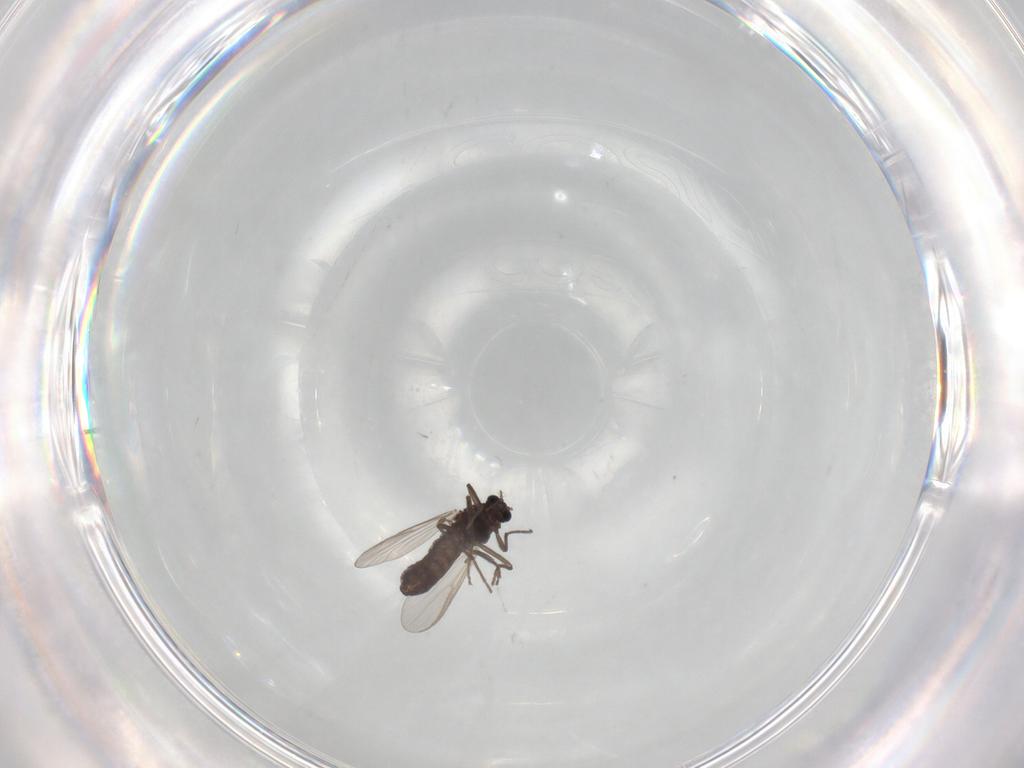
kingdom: Animalia
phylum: Arthropoda
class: Insecta
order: Diptera
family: Chironomidae
